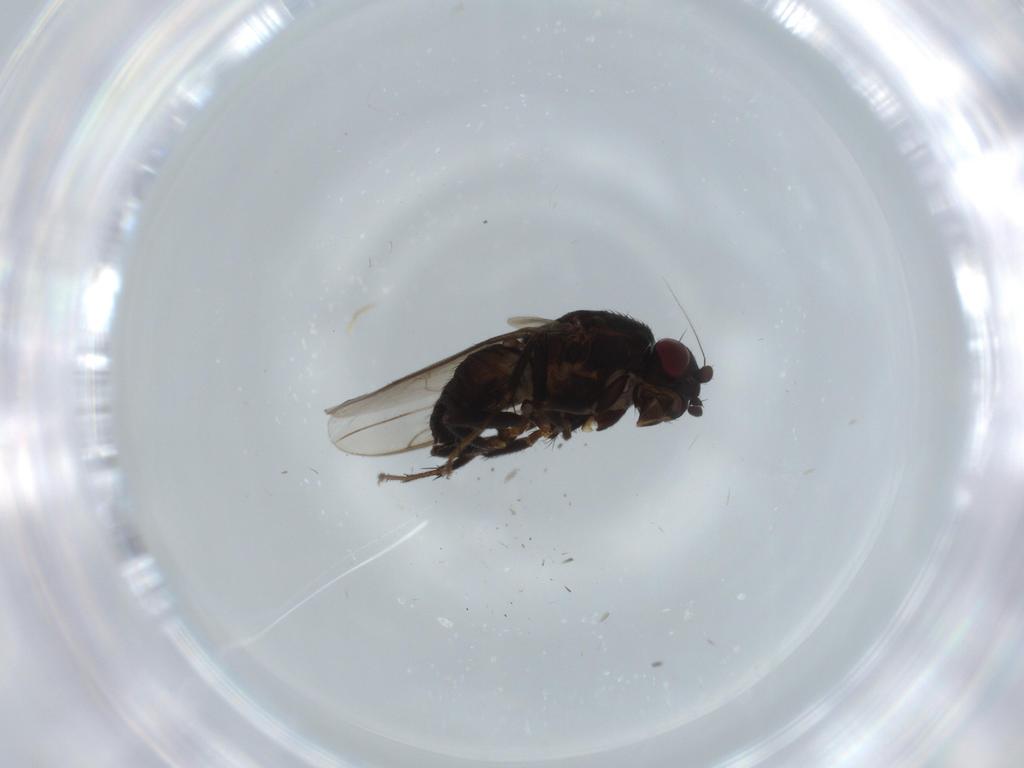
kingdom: Animalia
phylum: Arthropoda
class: Insecta
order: Diptera
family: Sphaeroceridae
